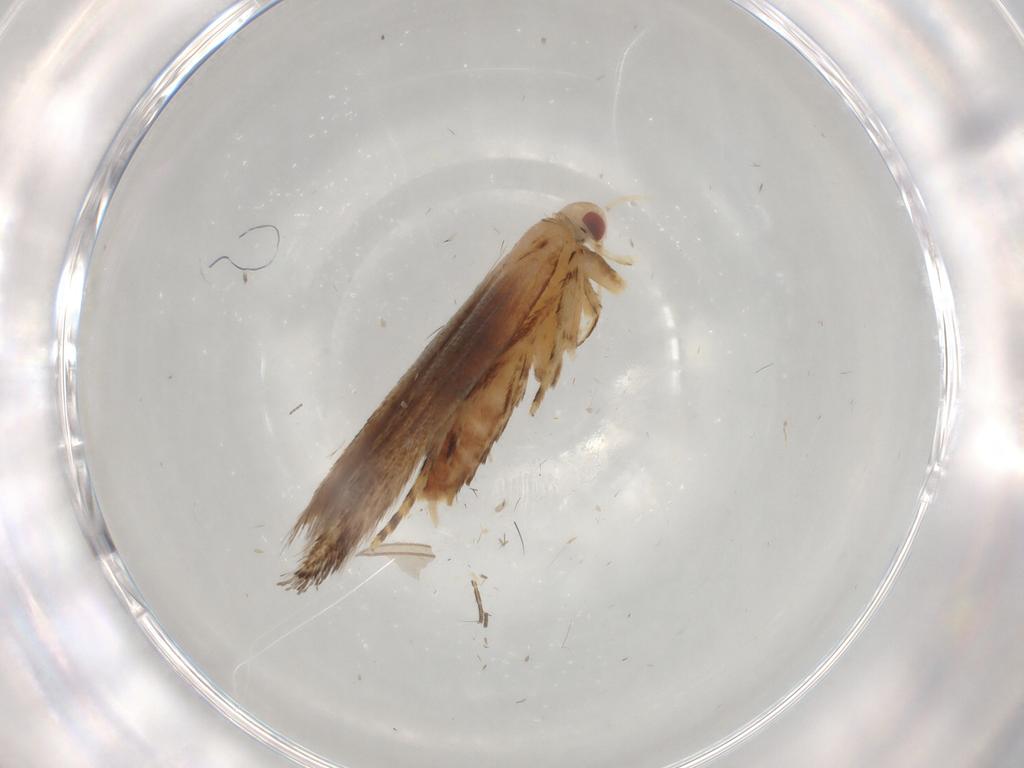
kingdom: Animalia
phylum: Arthropoda
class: Insecta
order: Lepidoptera
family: Cosmopterigidae
